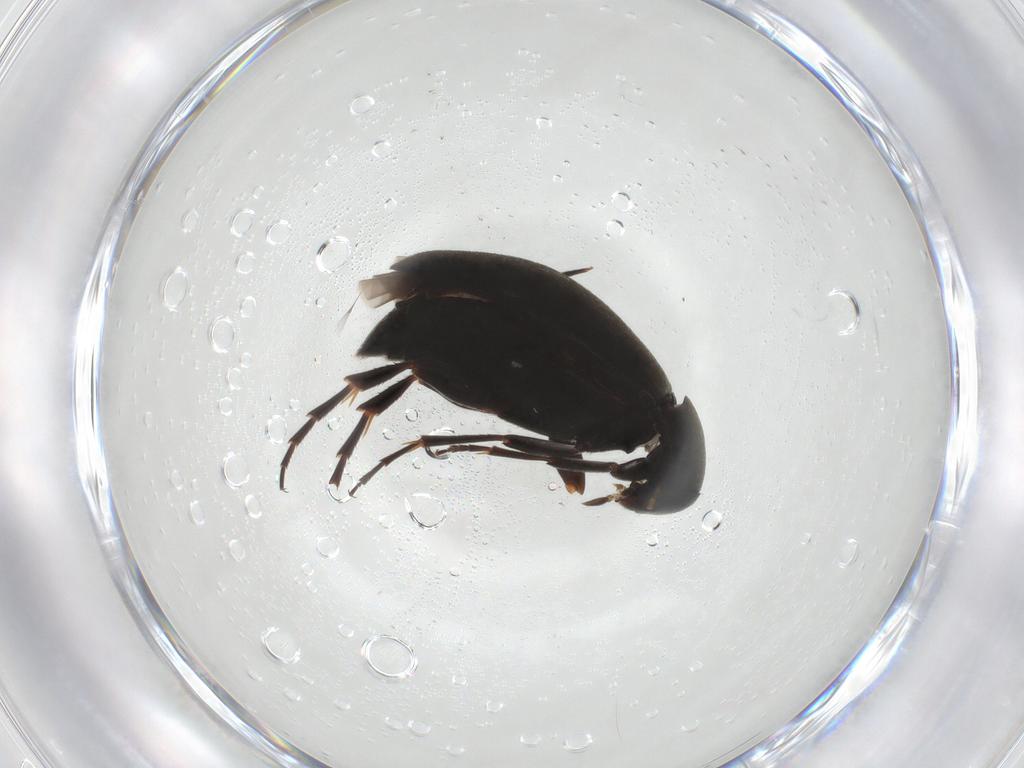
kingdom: Animalia
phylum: Arthropoda
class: Insecta
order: Coleoptera
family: Scraptiidae
